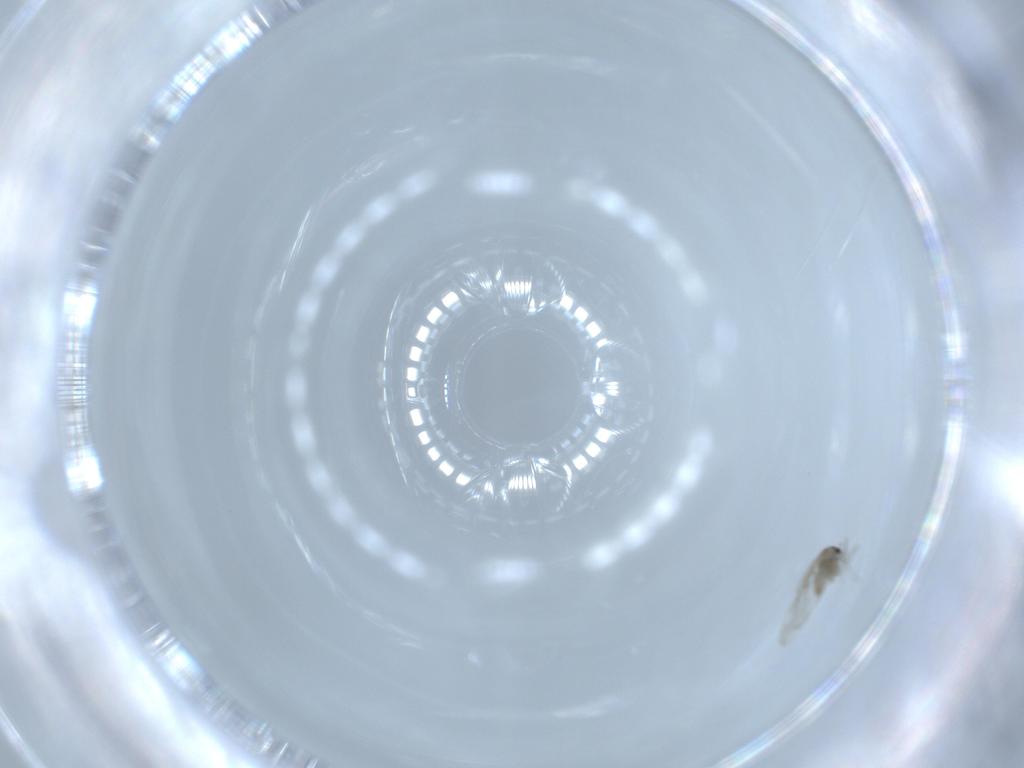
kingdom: Animalia
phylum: Arthropoda
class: Insecta
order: Diptera
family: Cecidomyiidae
